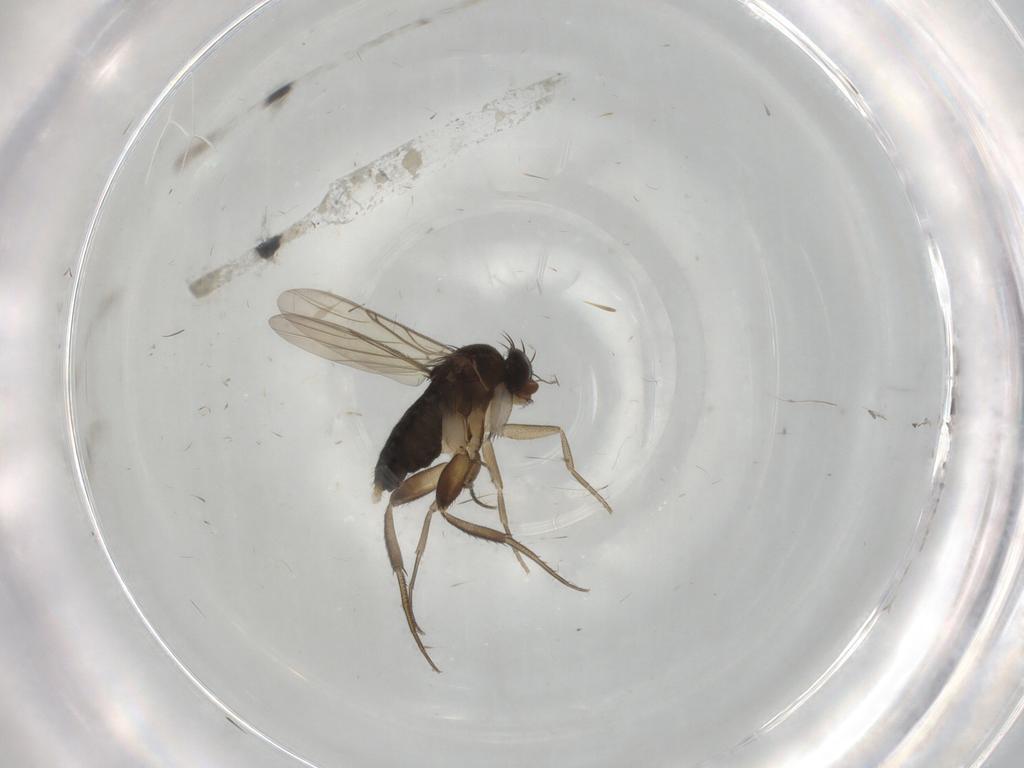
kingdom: Animalia
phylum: Arthropoda
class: Insecta
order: Diptera
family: Phoridae
